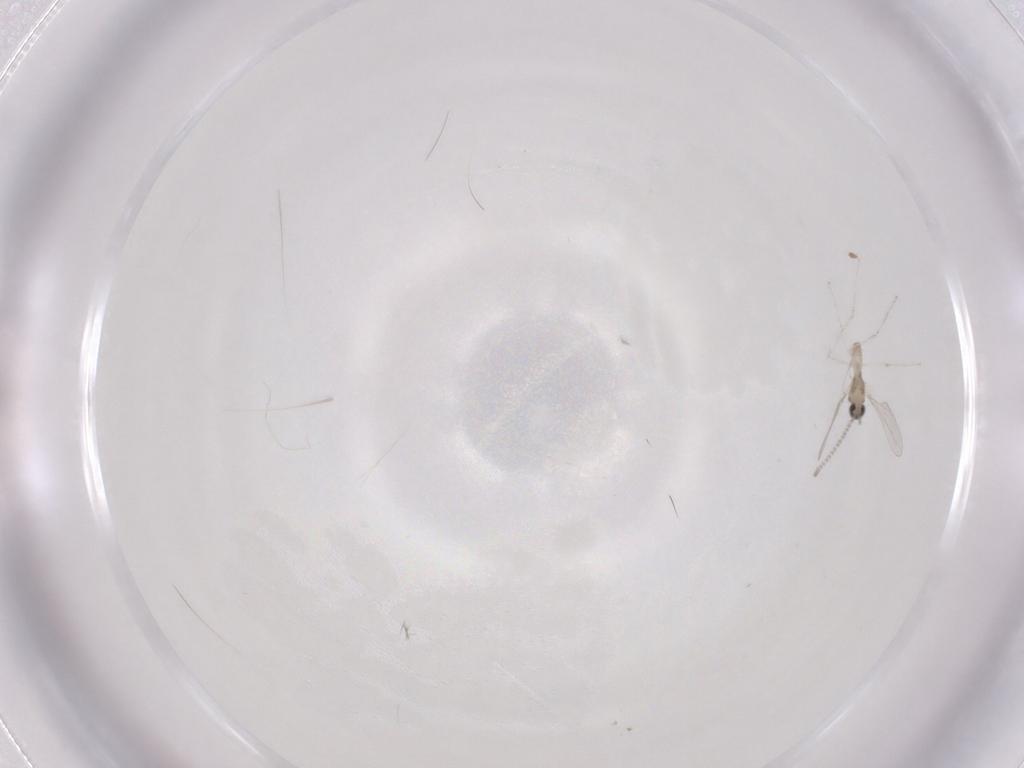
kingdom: Animalia
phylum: Arthropoda
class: Insecta
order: Diptera
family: Cecidomyiidae
